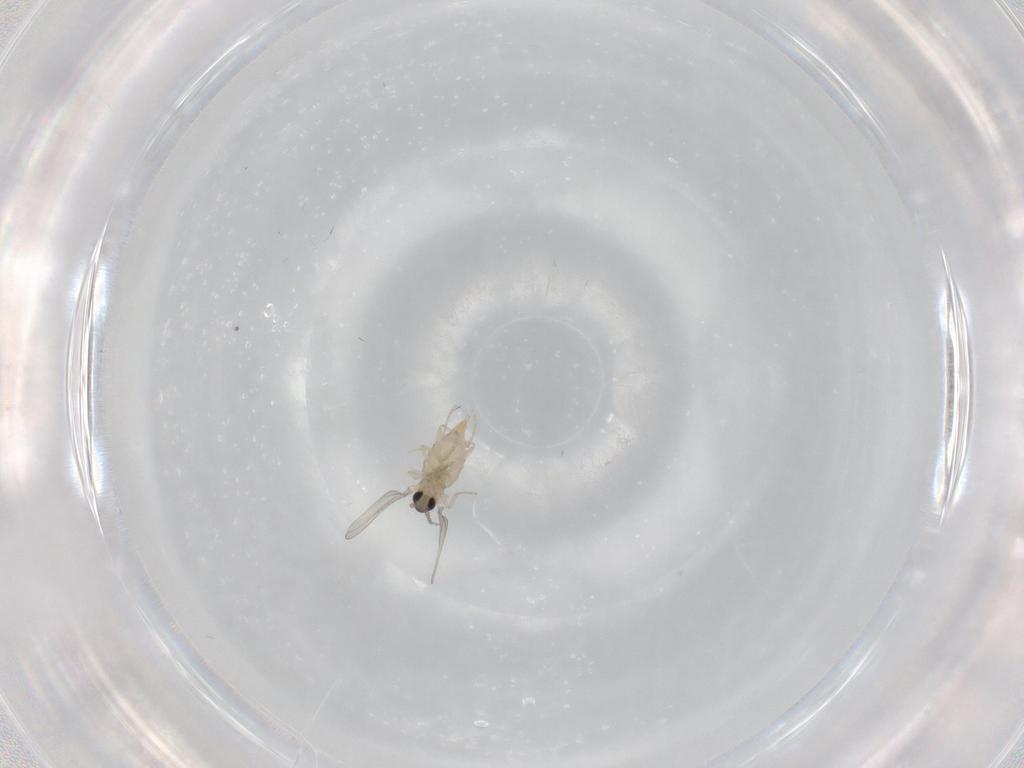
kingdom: Animalia
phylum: Arthropoda
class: Insecta
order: Diptera
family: Cecidomyiidae
